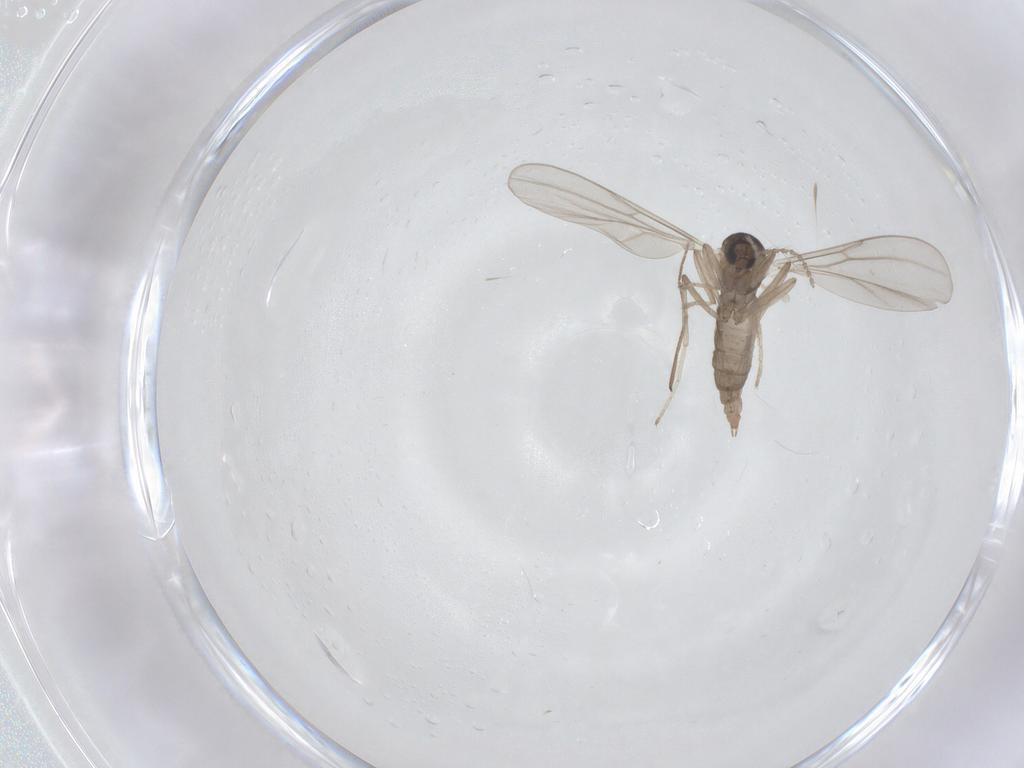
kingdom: Animalia
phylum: Arthropoda
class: Insecta
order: Diptera
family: Cecidomyiidae
